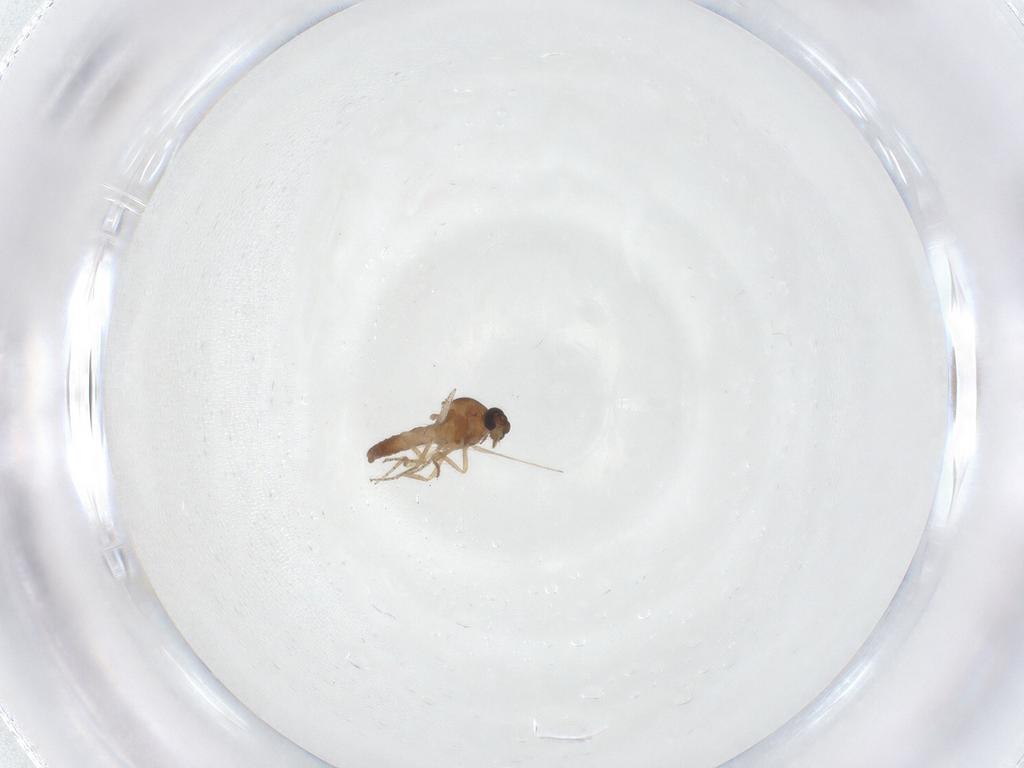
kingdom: Animalia
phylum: Arthropoda
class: Insecta
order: Diptera
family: Ceratopogonidae
